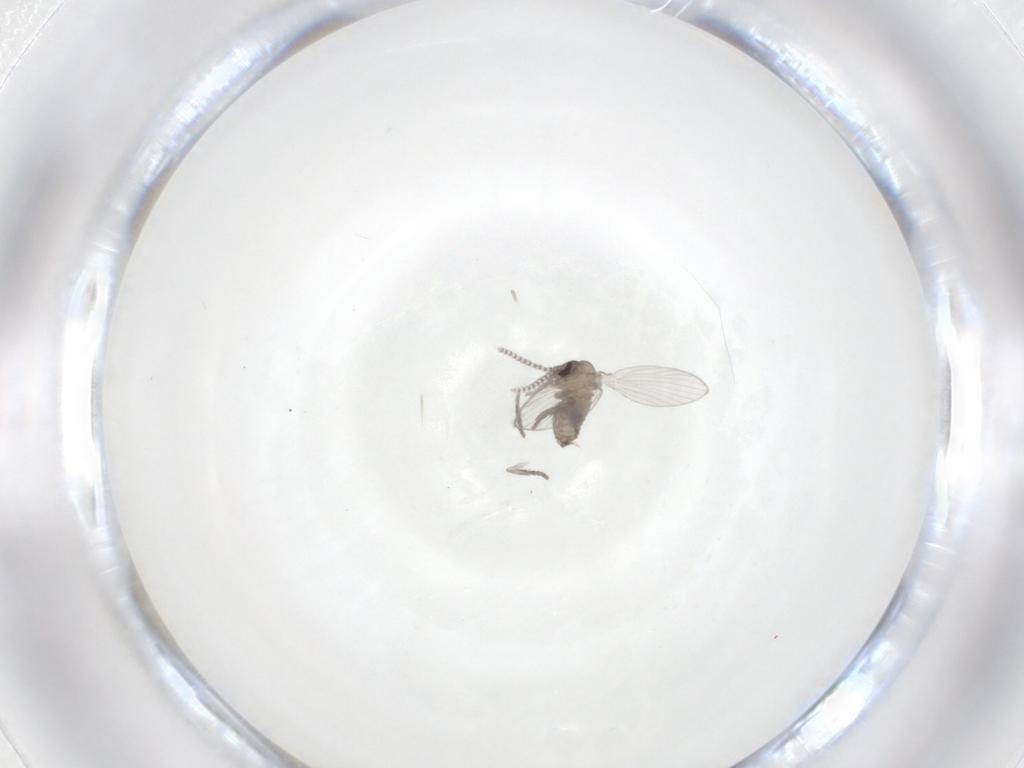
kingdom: Animalia
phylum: Arthropoda
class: Insecta
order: Diptera
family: Psychodidae
